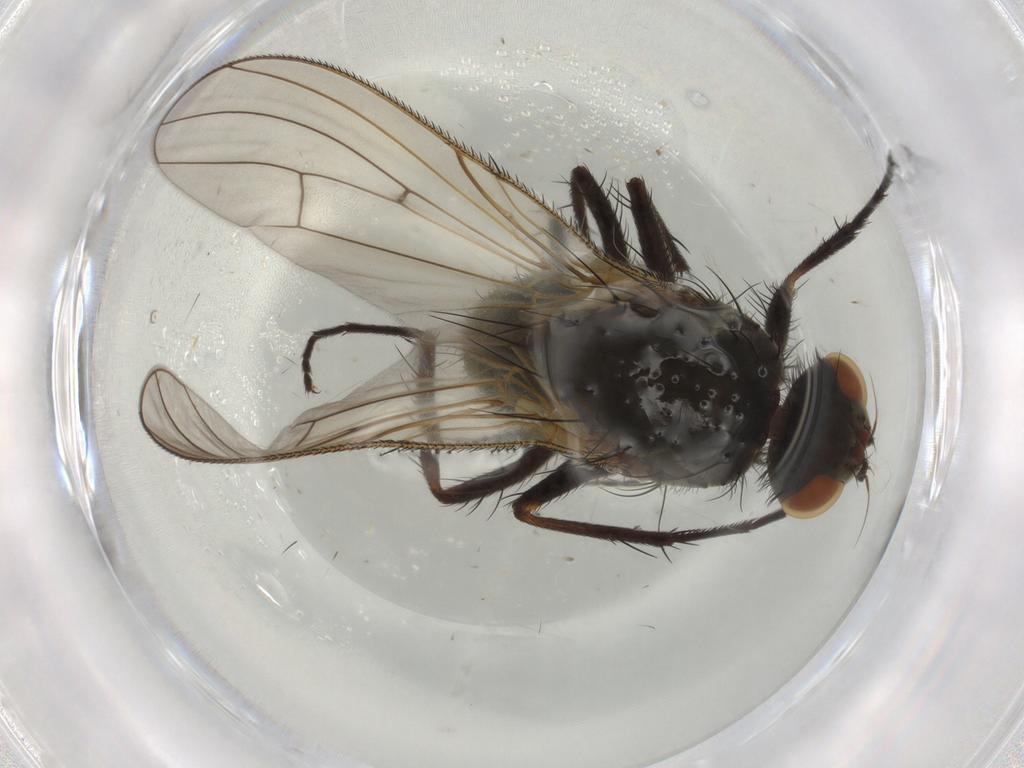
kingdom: Animalia
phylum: Arthropoda
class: Insecta
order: Diptera
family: Anthomyiidae
